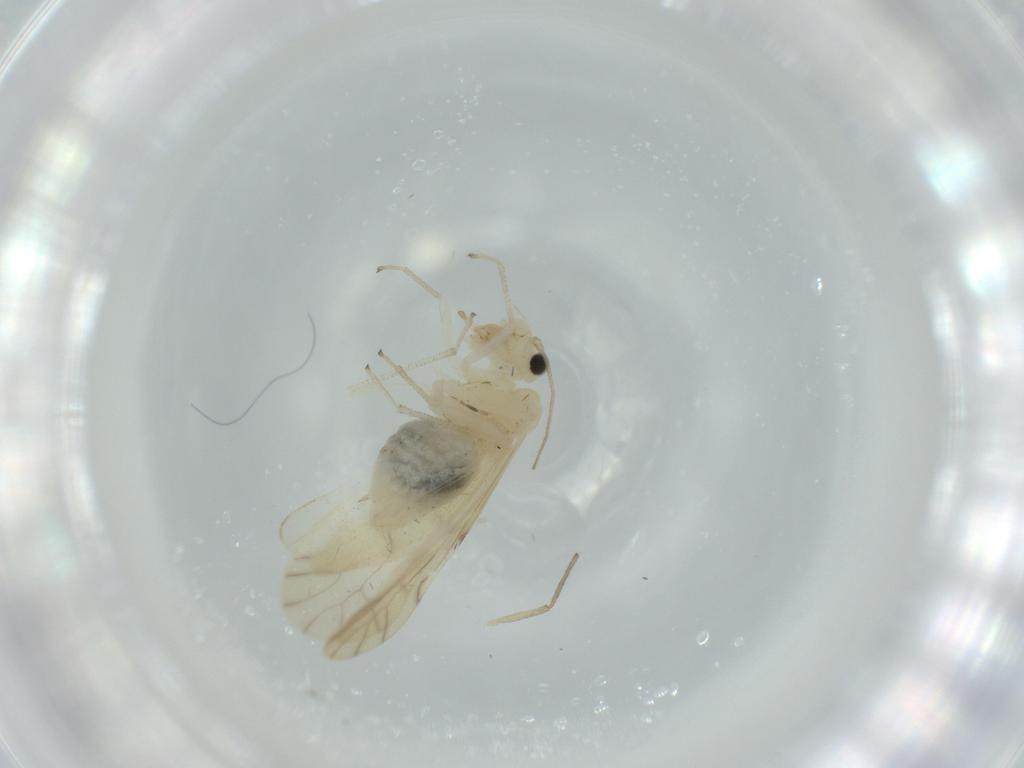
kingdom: Animalia
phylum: Arthropoda
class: Insecta
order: Psocodea
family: Caeciliusidae
